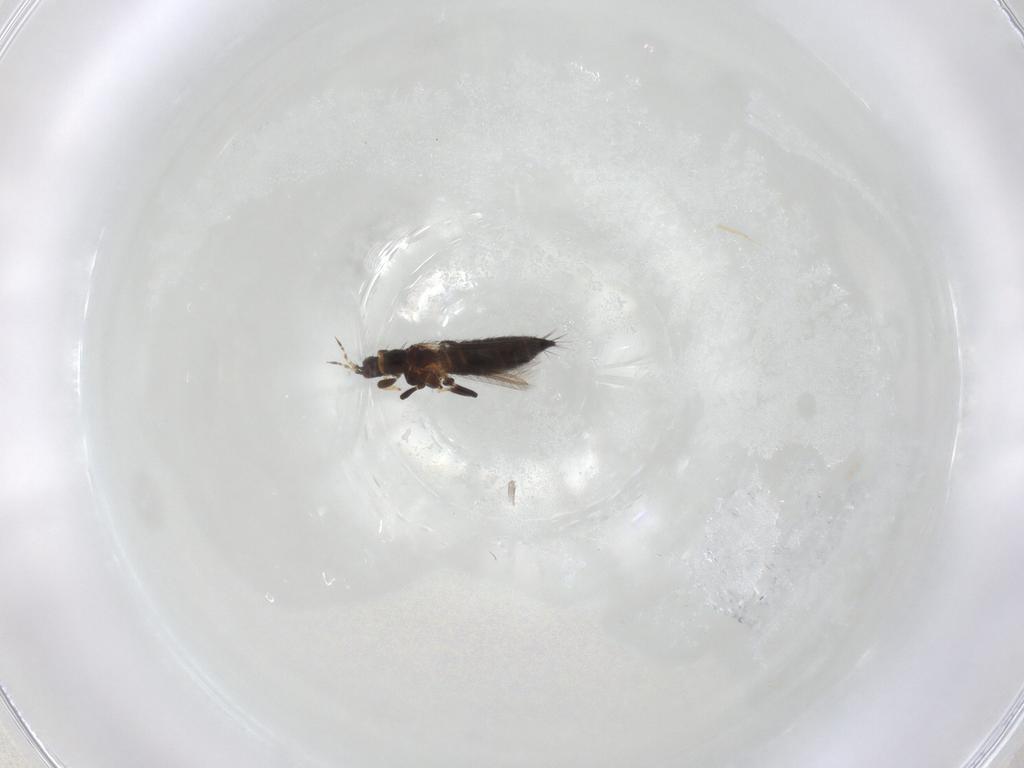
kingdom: Animalia
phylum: Arthropoda
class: Insecta
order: Thysanoptera
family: Thripidae
